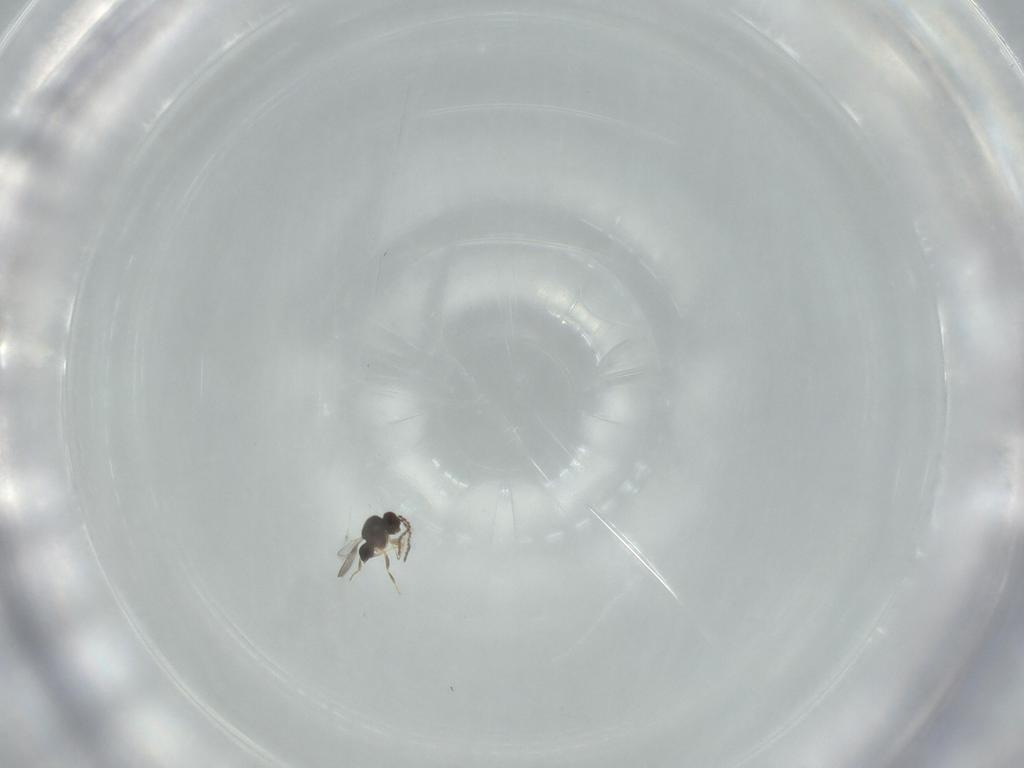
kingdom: Animalia
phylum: Arthropoda
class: Insecta
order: Hymenoptera
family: Ceraphronidae
